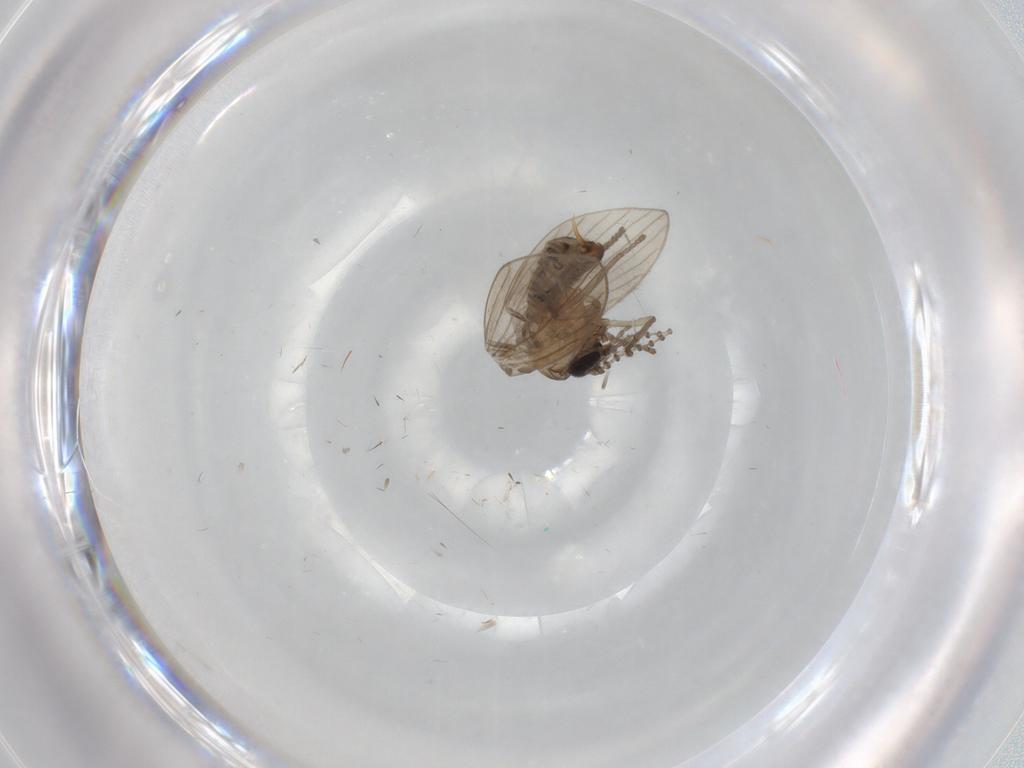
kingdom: Animalia
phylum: Arthropoda
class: Insecta
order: Diptera
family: Psychodidae
